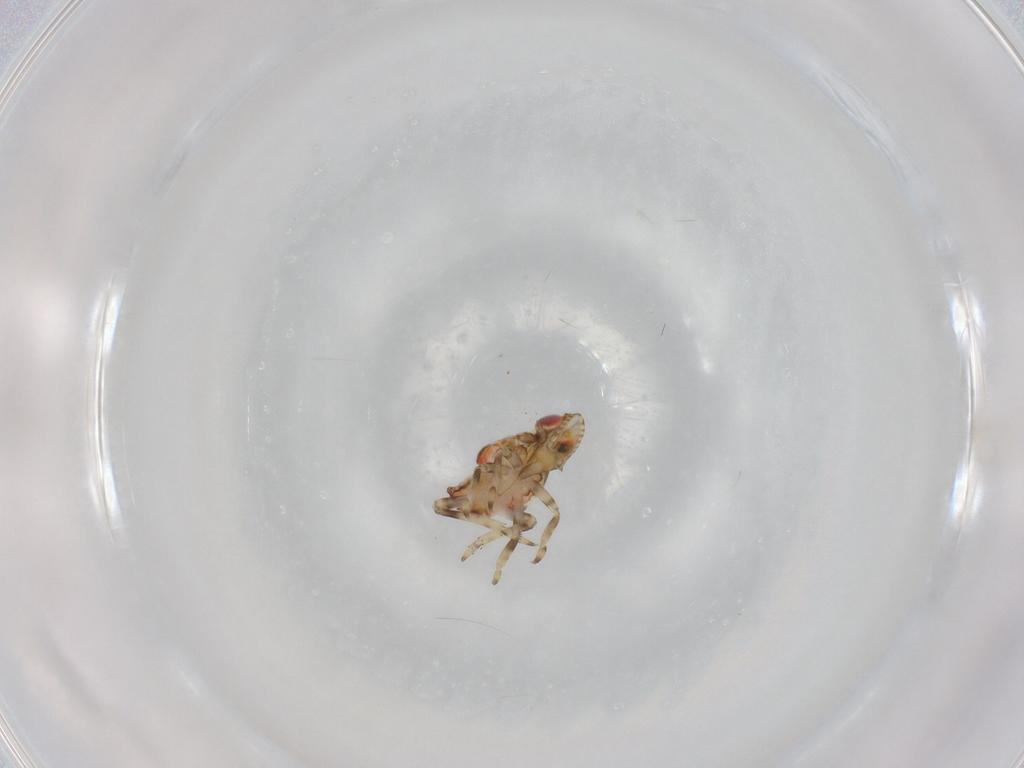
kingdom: Animalia
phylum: Arthropoda
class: Insecta
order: Hemiptera
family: Tropiduchidae
